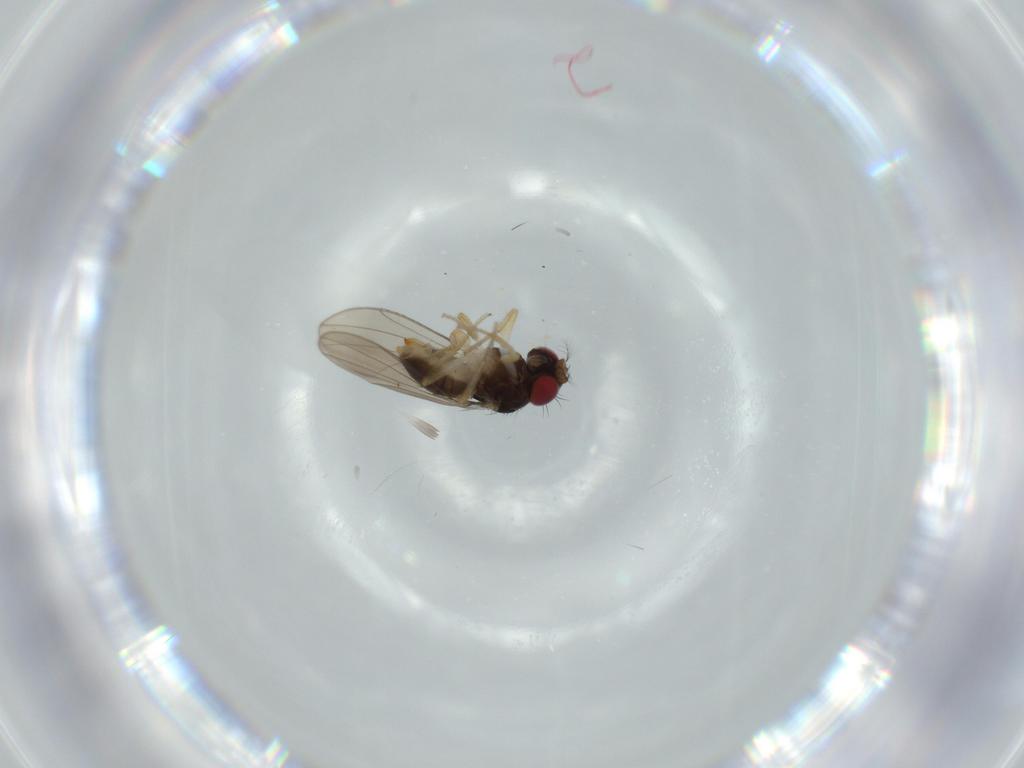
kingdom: Animalia
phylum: Arthropoda
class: Insecta
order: Diptera
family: Drosophilidae
